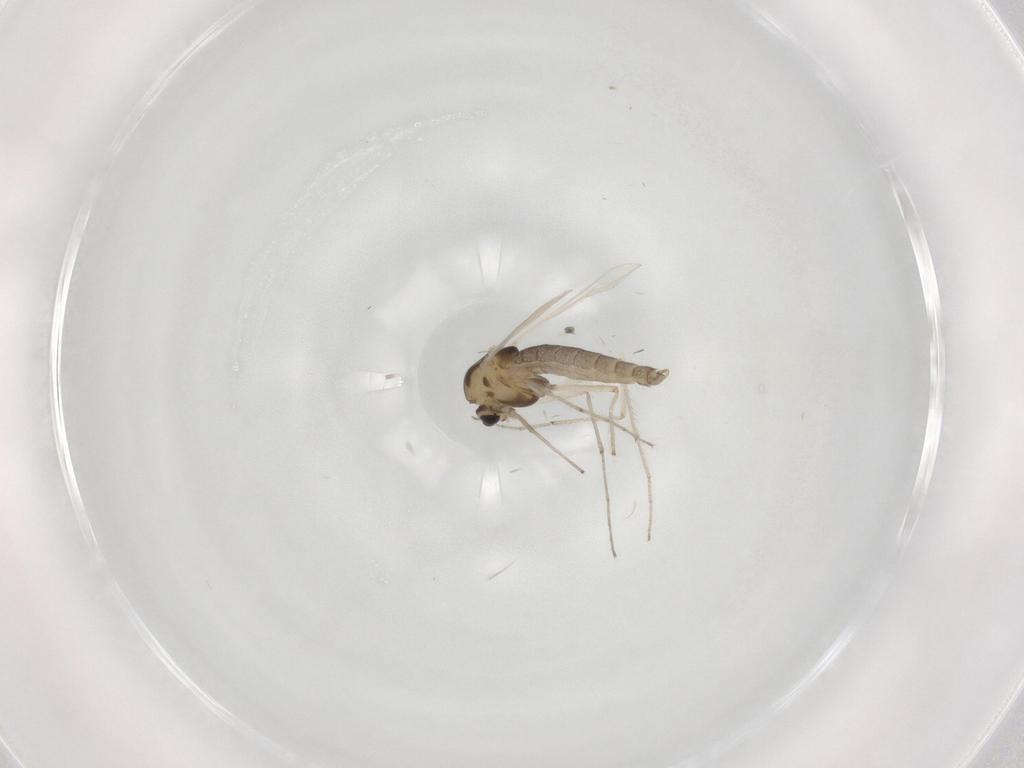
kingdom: Animalia
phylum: Arthropoda
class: Insecta
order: Diptera
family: Chironomidae
